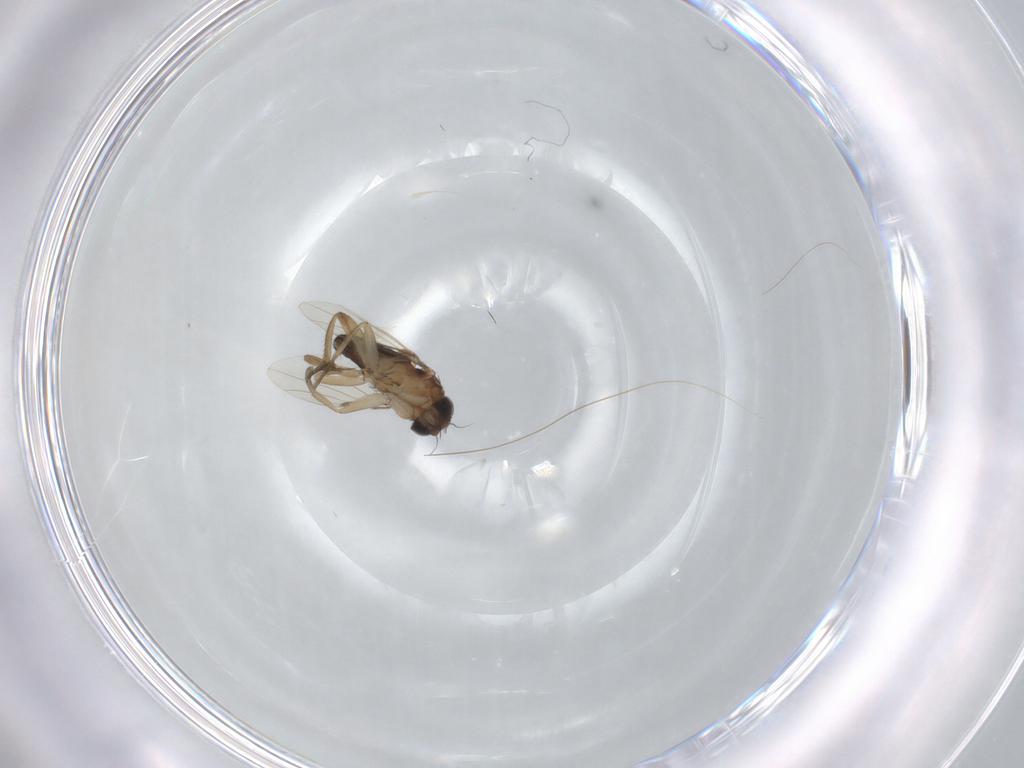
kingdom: Animalia
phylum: Arthropoda
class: Insecta
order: Diptera
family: Phoridae
